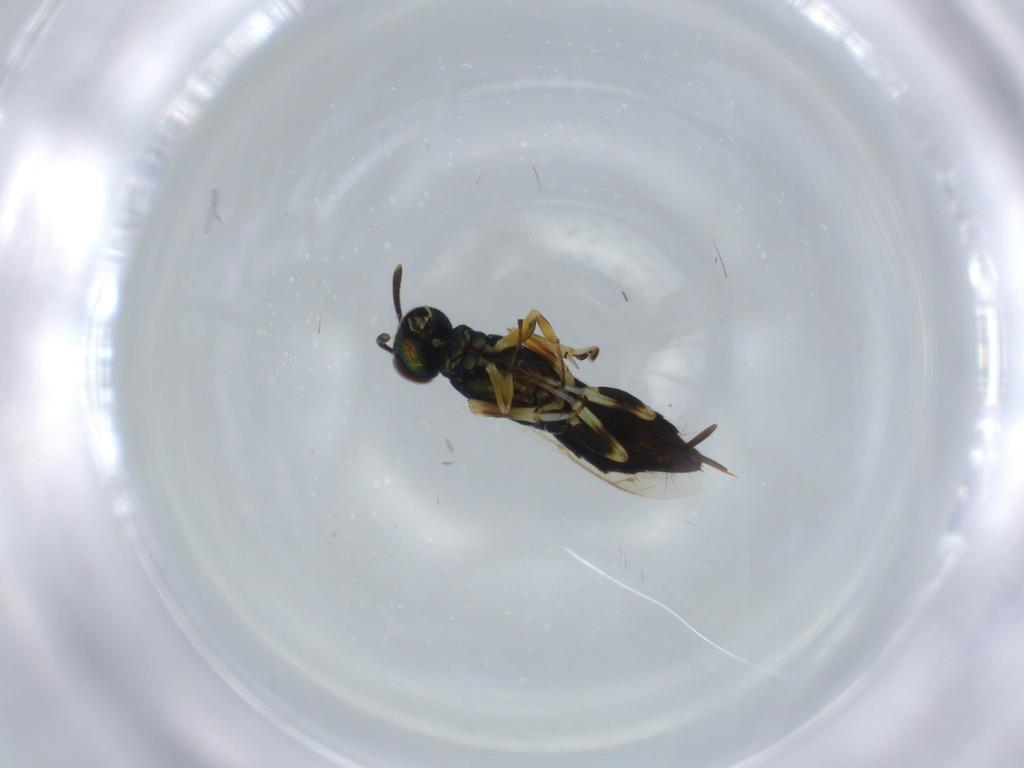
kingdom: Animalia
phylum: Arthropoda
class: Insecta
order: Hymenoptera
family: Eupelmidae
